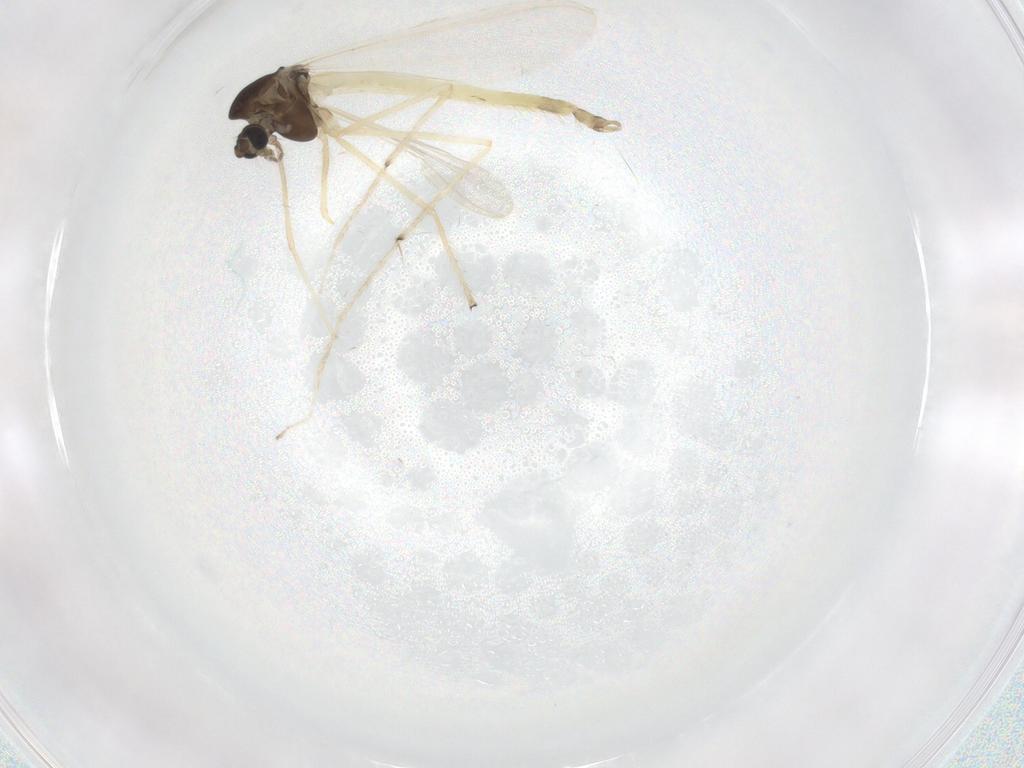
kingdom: Animalia
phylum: Arthropoda
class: Insecta
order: Diptera
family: Chironomidae
